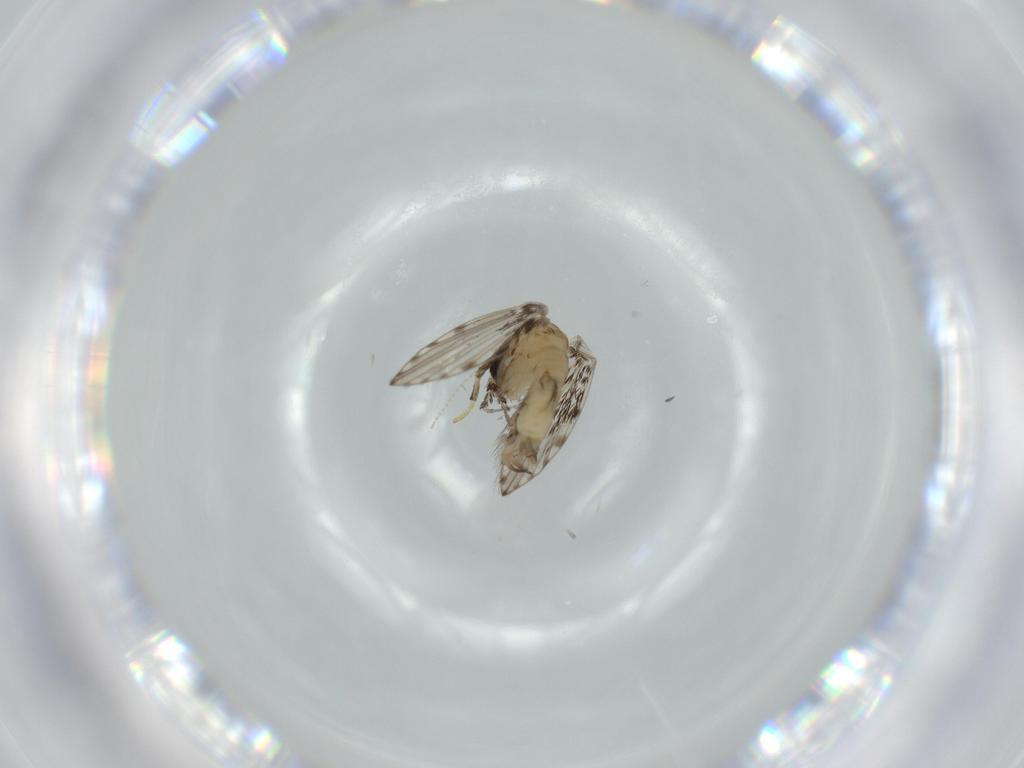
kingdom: Animalia
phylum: Arthropoda
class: Insecta
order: Diptera
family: Psychodidae
